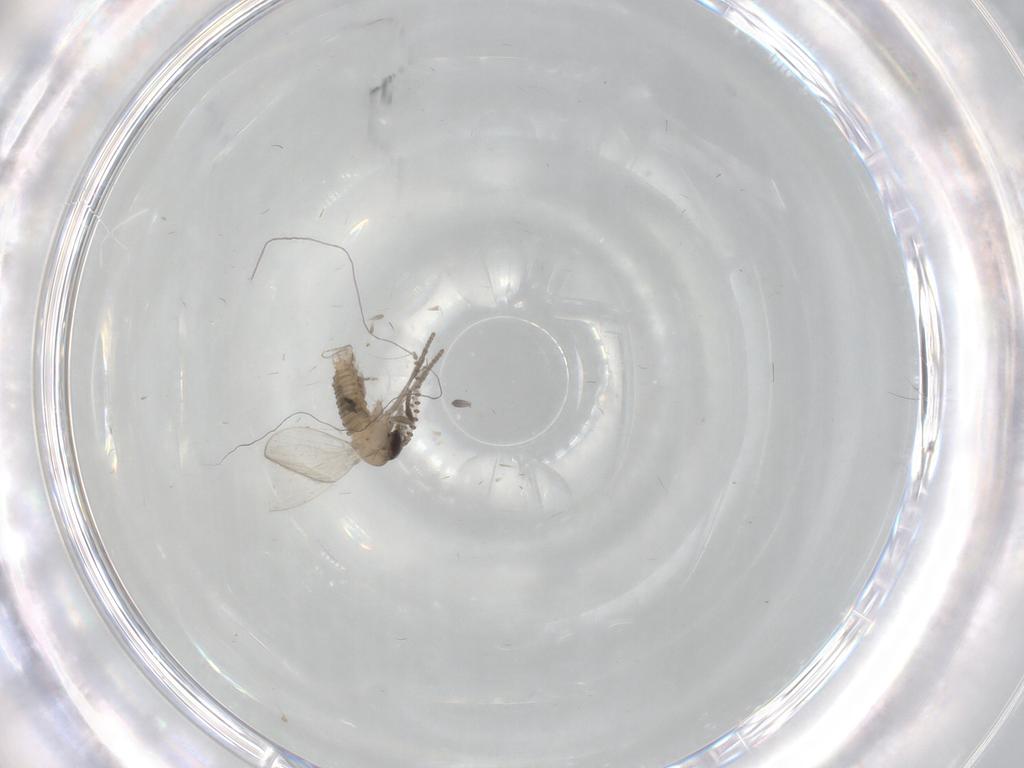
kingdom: Animalia
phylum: Arthropoda
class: Insecta
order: Diptera
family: Psychodidae
